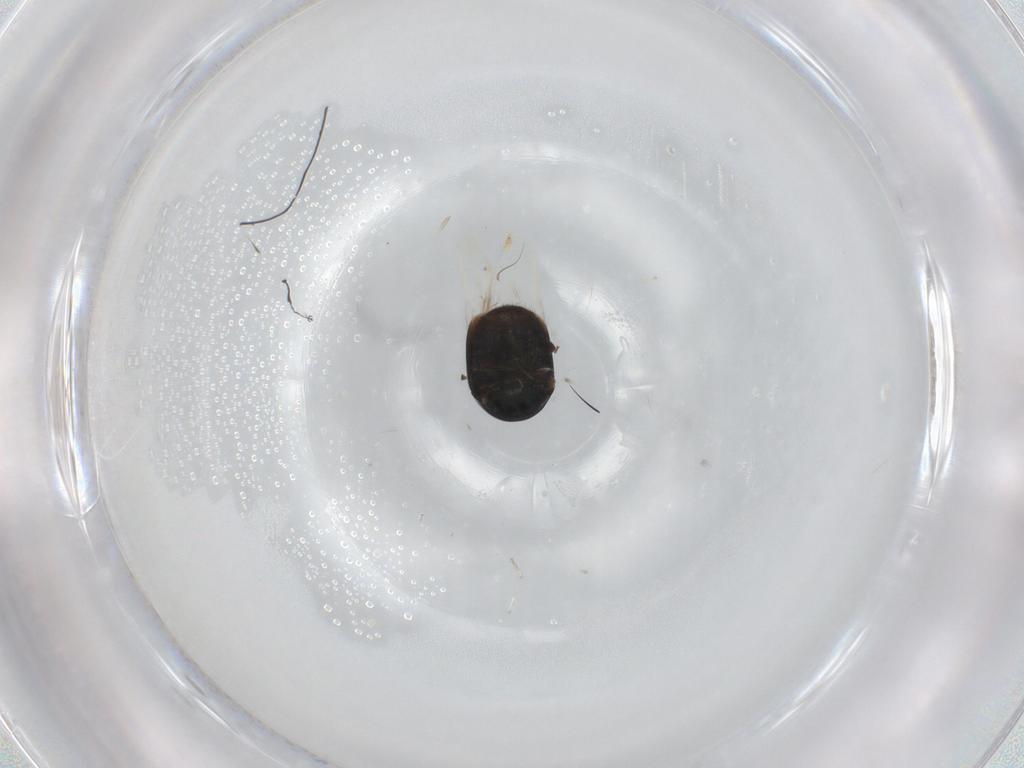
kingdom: Animalia
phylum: Arthropoda
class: Insecta
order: Coleoptera
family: Cybocephalidae
